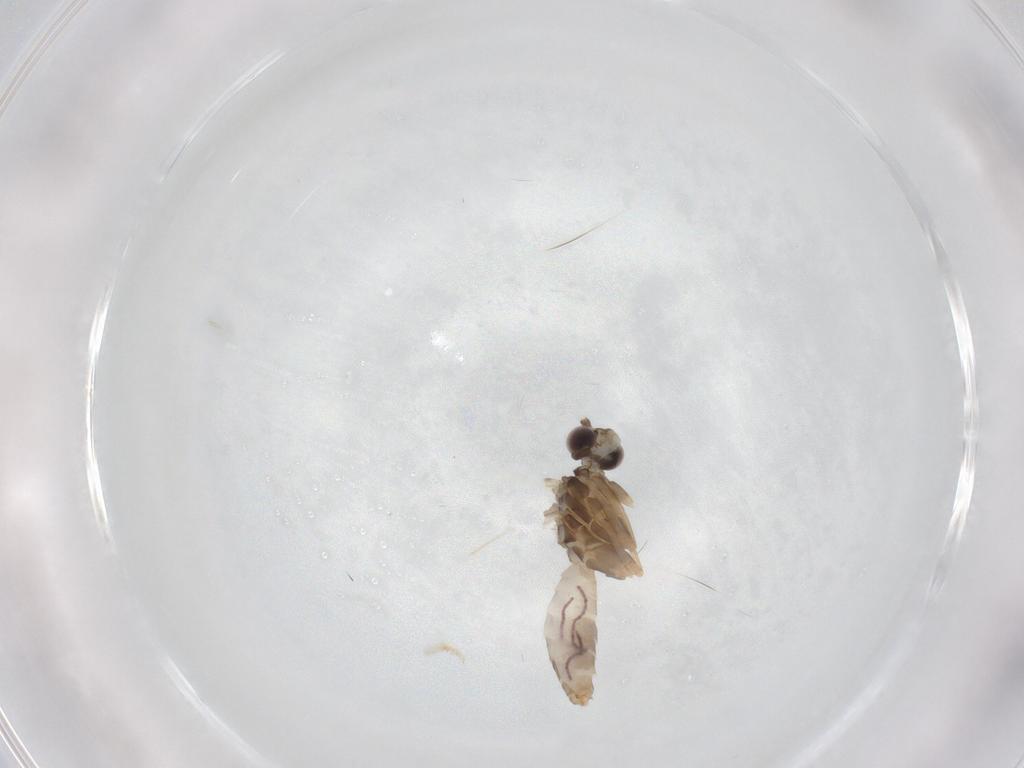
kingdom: Animalia
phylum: Arthropoda
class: Insecta
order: Trichoptera
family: Hydroptilidae
